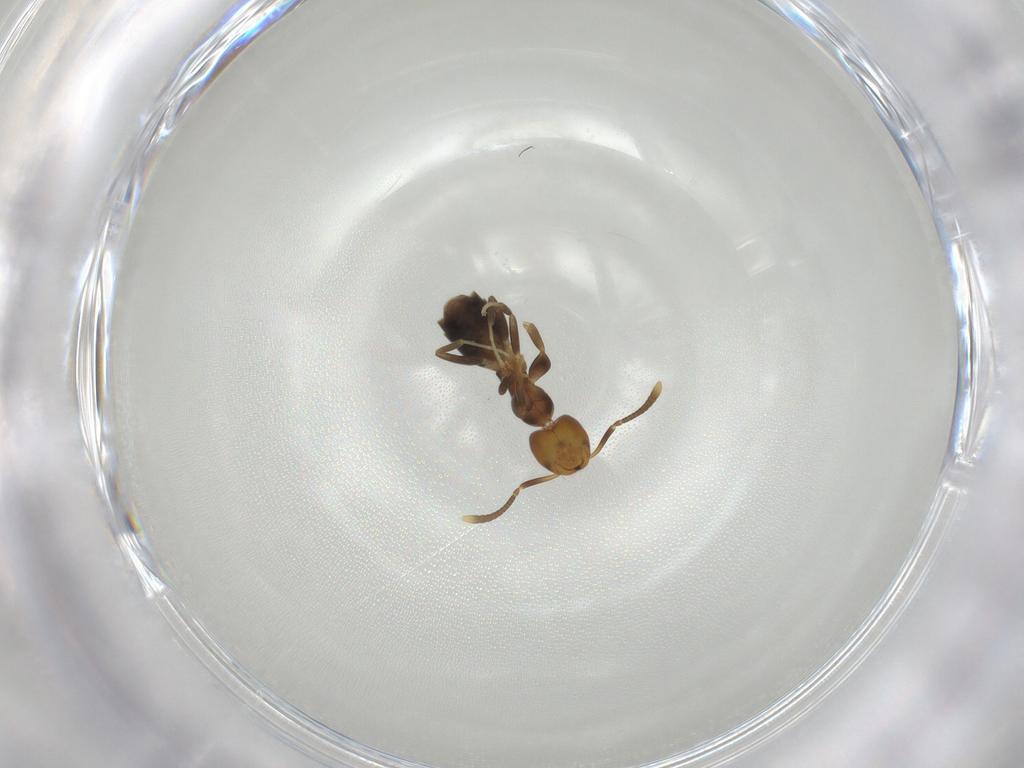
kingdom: Animalia
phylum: Arthropoda
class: Insecta
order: Hymenoptera
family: Formicidae
